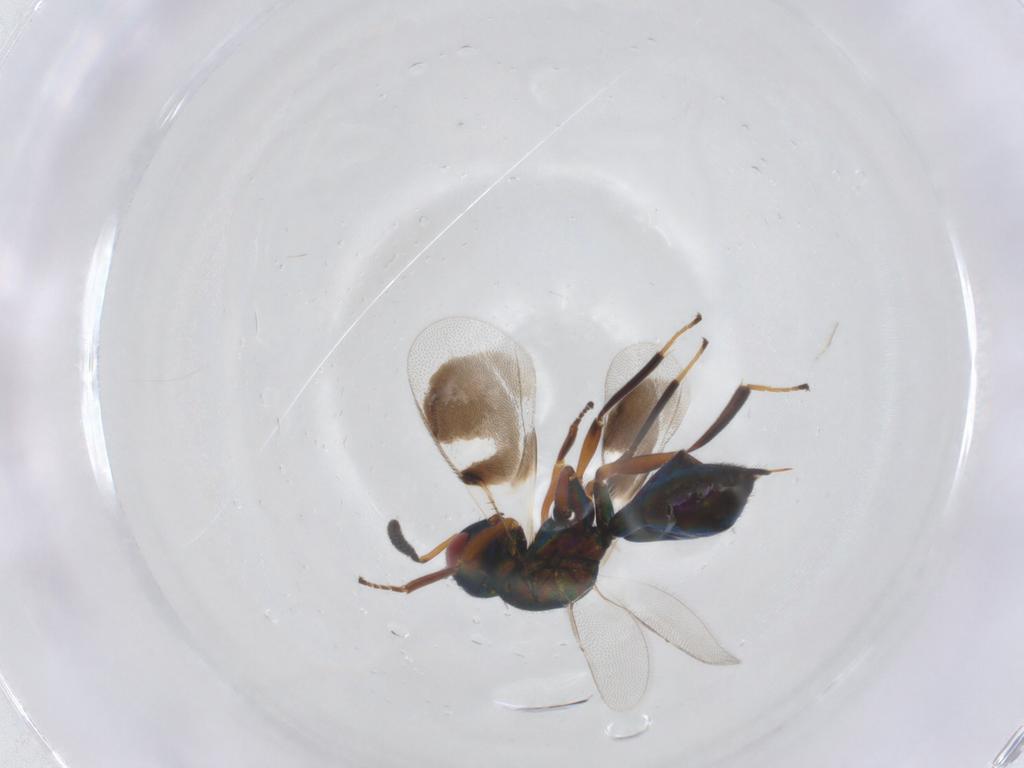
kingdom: Animalia
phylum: Arthropoda
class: Insecta
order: Hymenoptera
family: Pteromalidae
